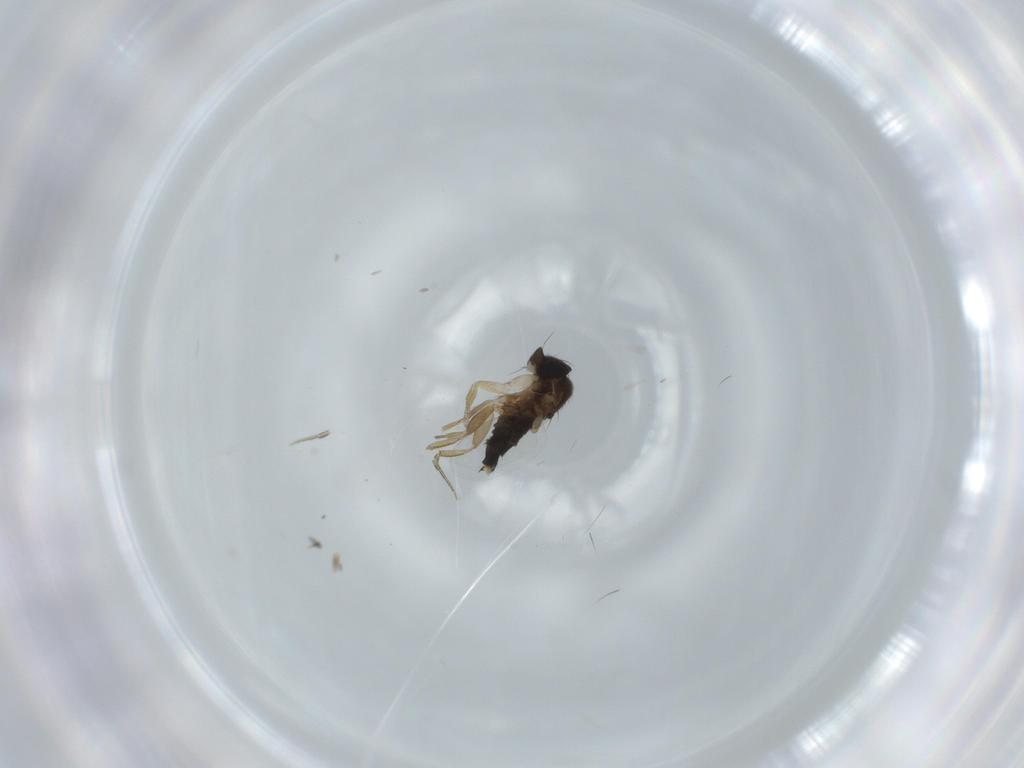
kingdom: Animalia
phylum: Arthropoda
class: Insecta
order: Diptera
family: Phoridae
